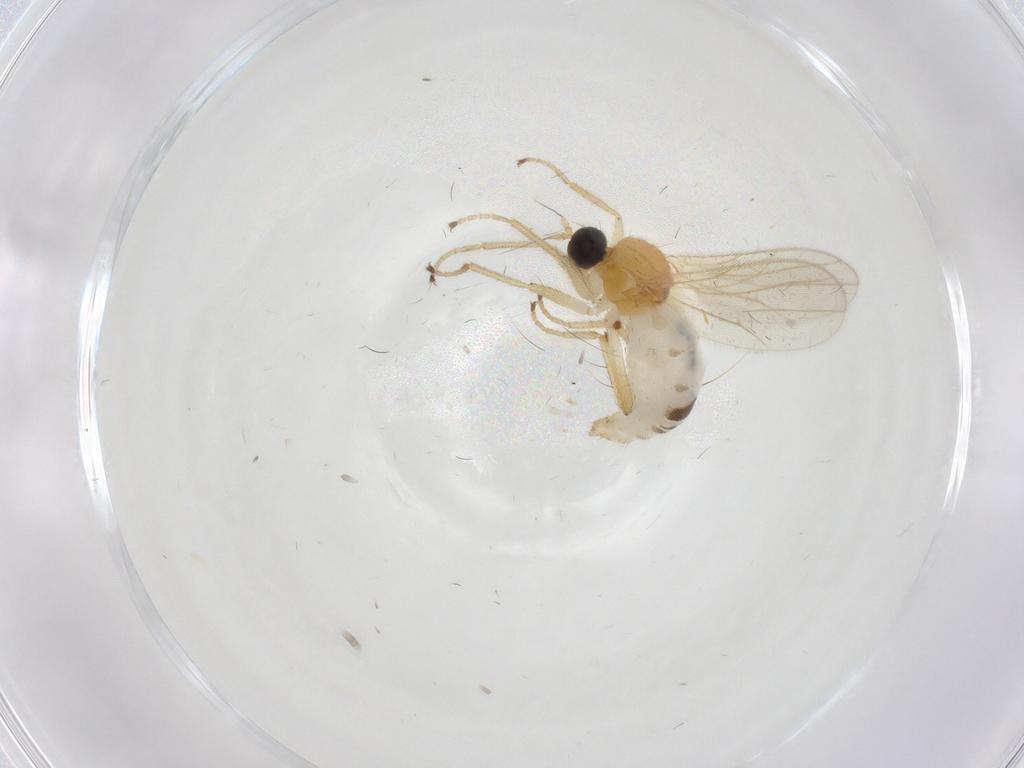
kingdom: Animalia
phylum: Arthropoda
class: Insecta
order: Diptera
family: Hybotidae
